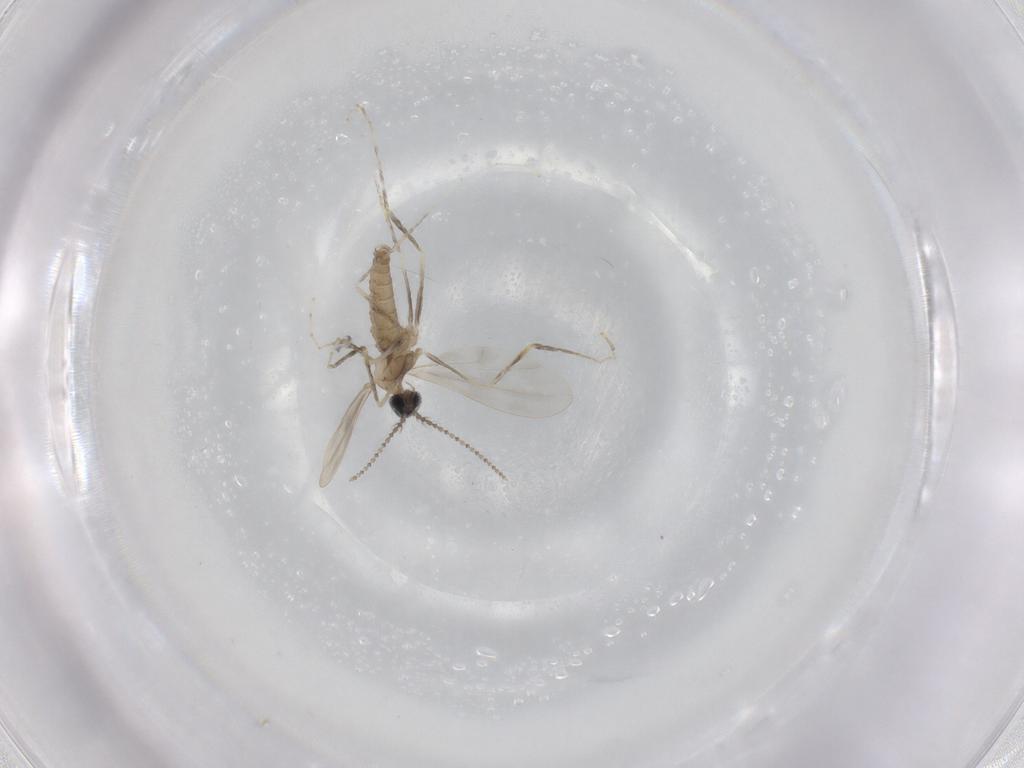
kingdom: Animalia
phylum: Arthropoda
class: Insecta
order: Diptera
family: Cecidomyiidae
